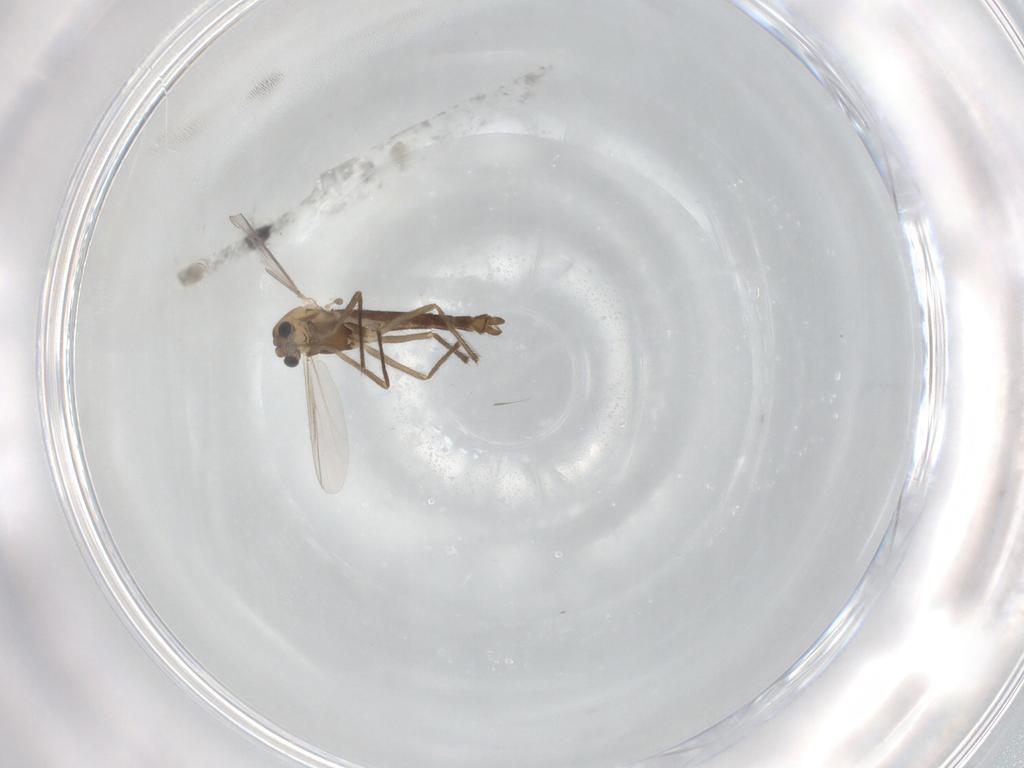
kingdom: Animalia
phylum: Arthropoda
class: Insecta
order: Diptera
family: Chironomidae
